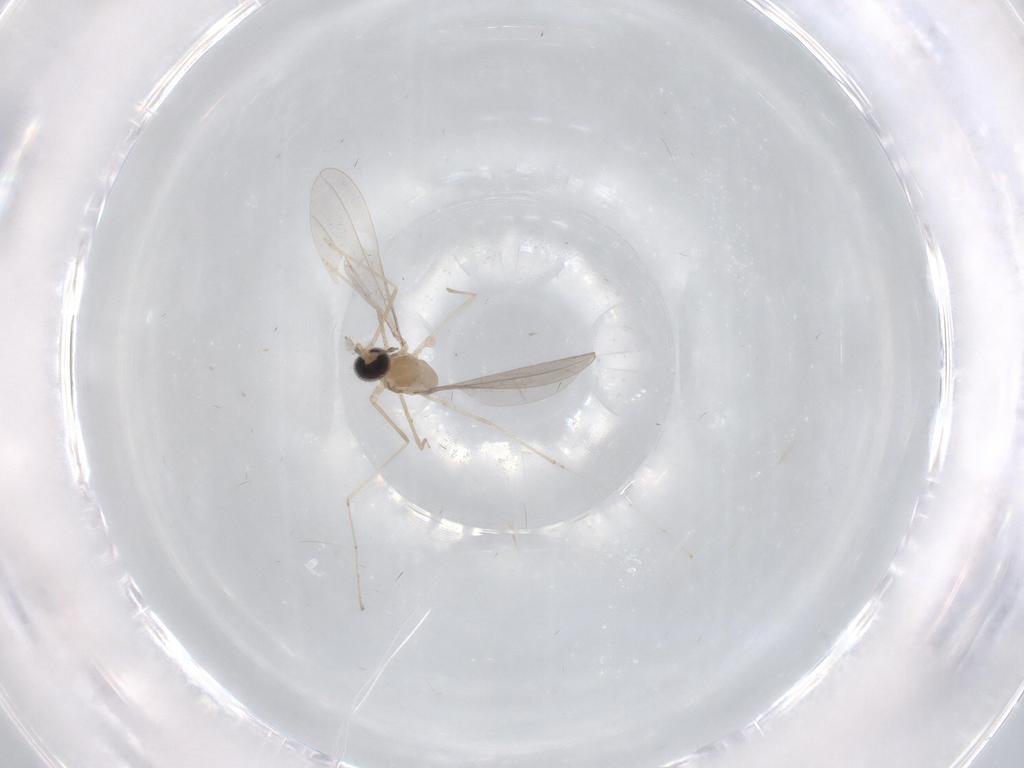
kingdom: Animalia
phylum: Arthropoda
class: Insecta
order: Diptera
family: Cecidomyiidae
